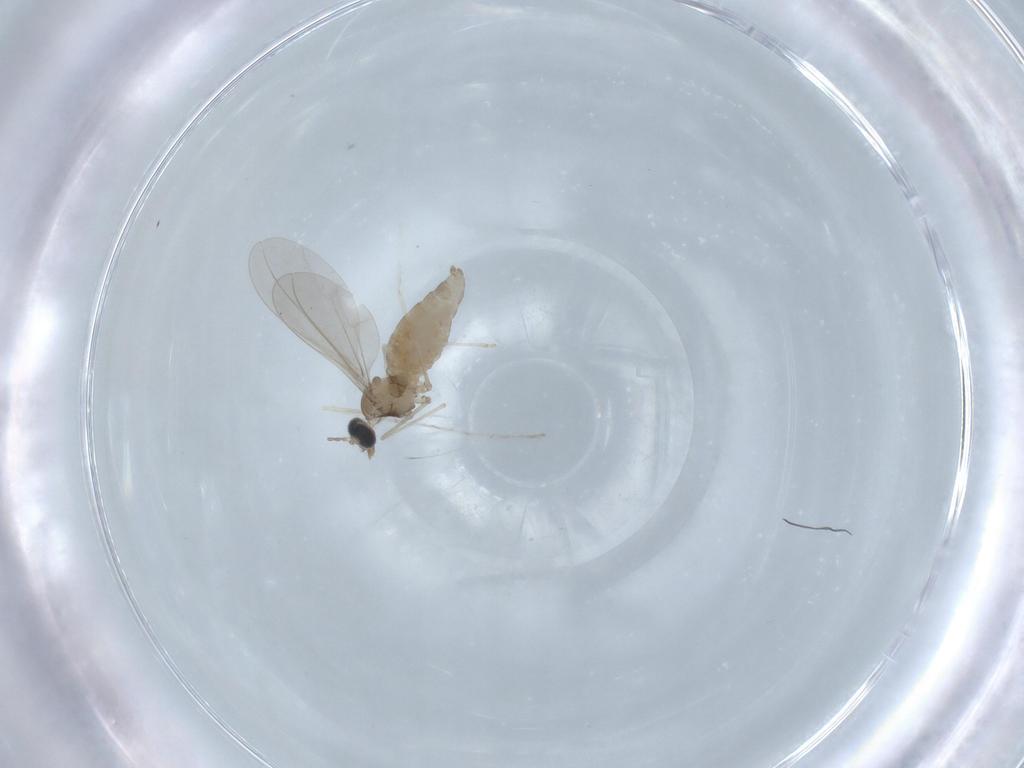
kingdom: Animalia
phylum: Arthropoda
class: Insecta
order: Diptera
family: Cecidomyiidae
